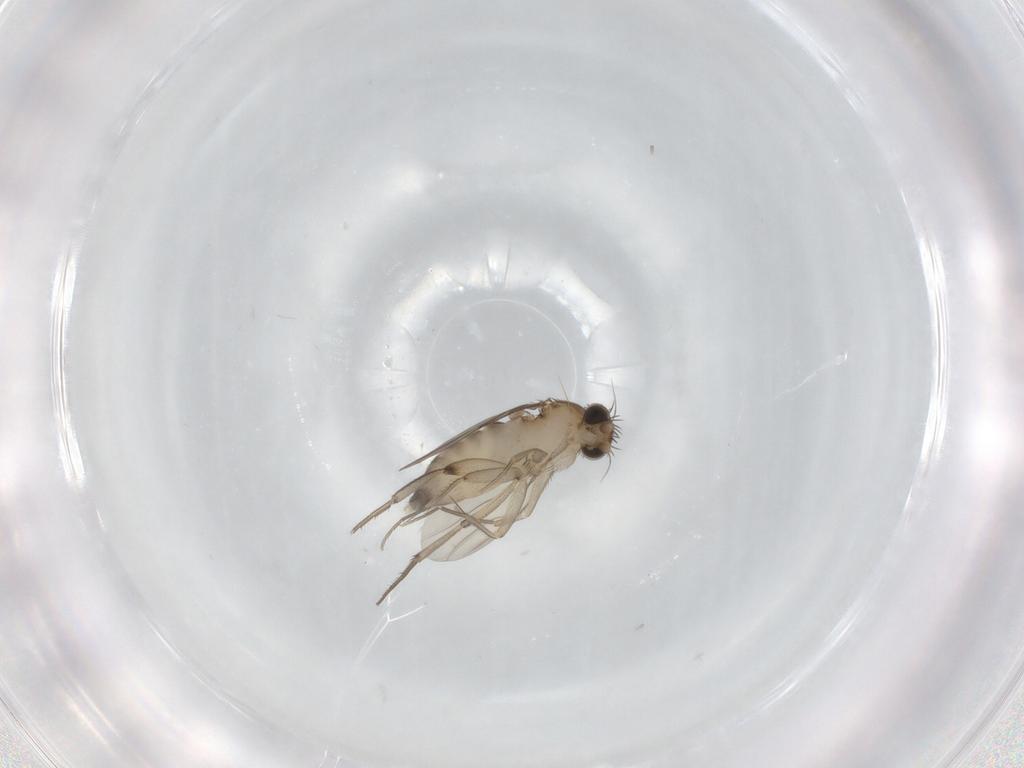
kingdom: Animalia
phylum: Arthropoda
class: Insecta
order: Diptera
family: Phoridae
